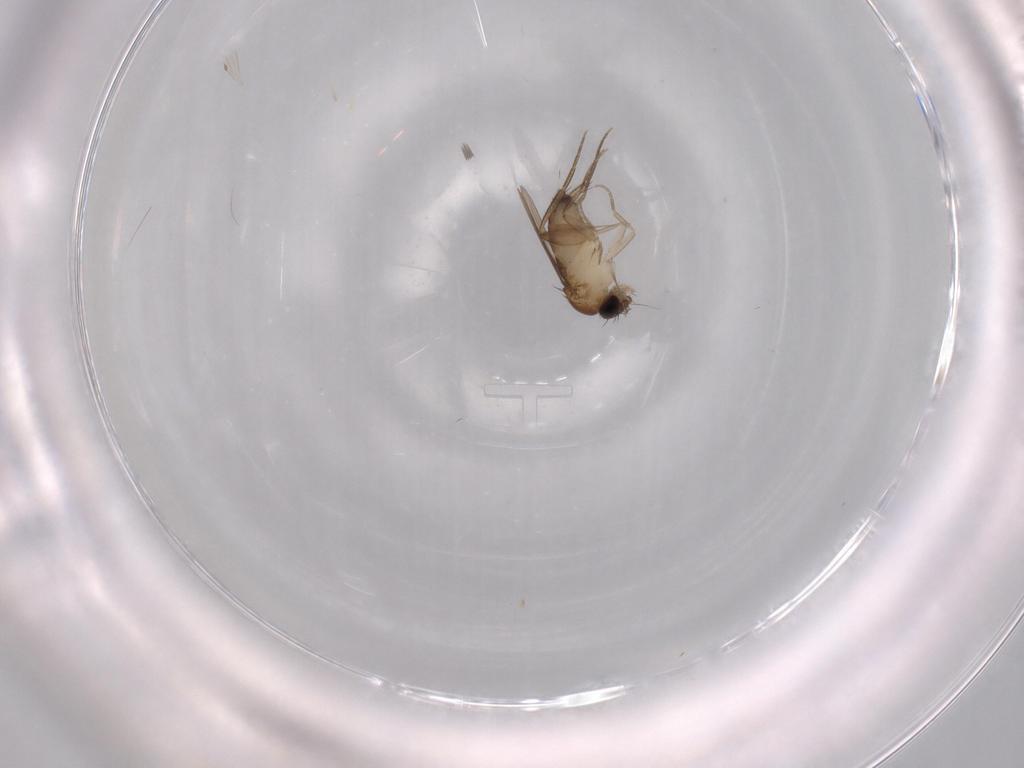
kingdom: Animalia
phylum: Arthropoda
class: Insecta
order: Diptera
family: Phoridae
